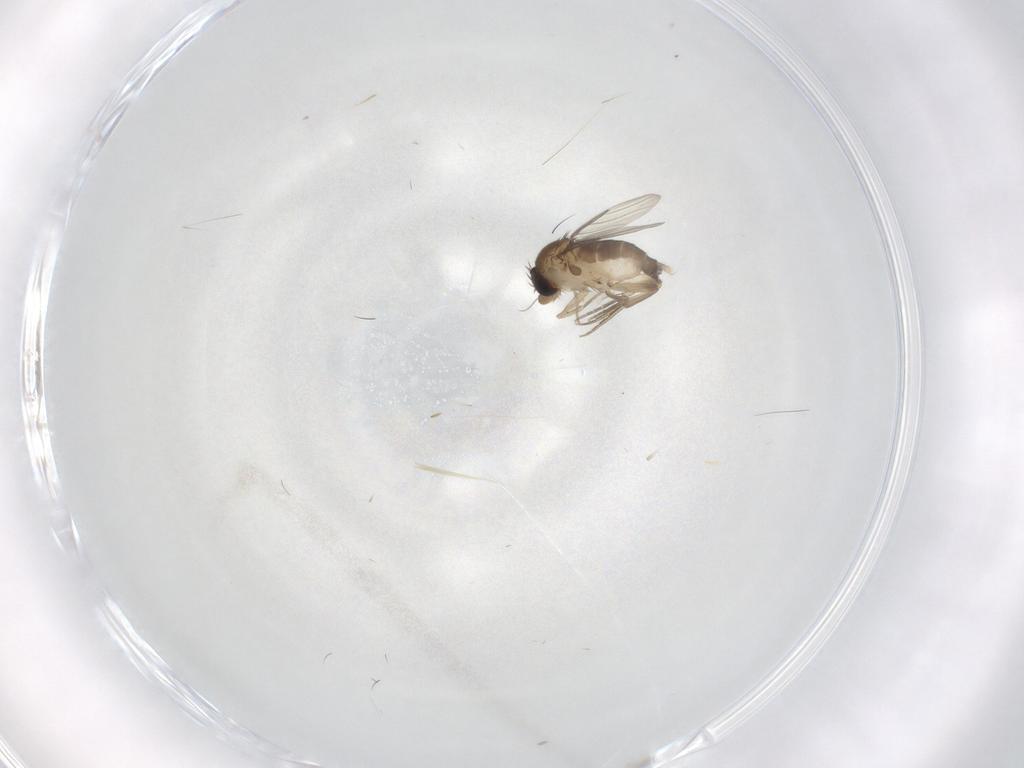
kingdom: Animalia
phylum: Arthropoda
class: Insecta
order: Diptera
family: Phoridae
